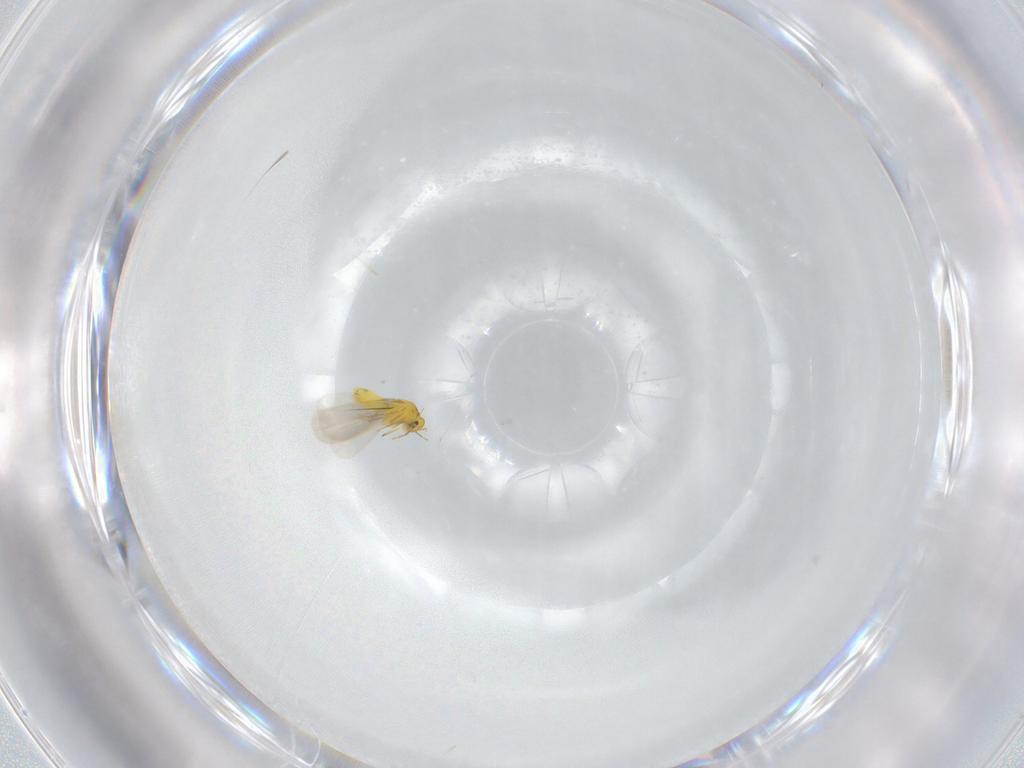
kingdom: Animalia
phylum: Arthropoda
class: Insecta
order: Hemiptera
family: Aleyrodidae
